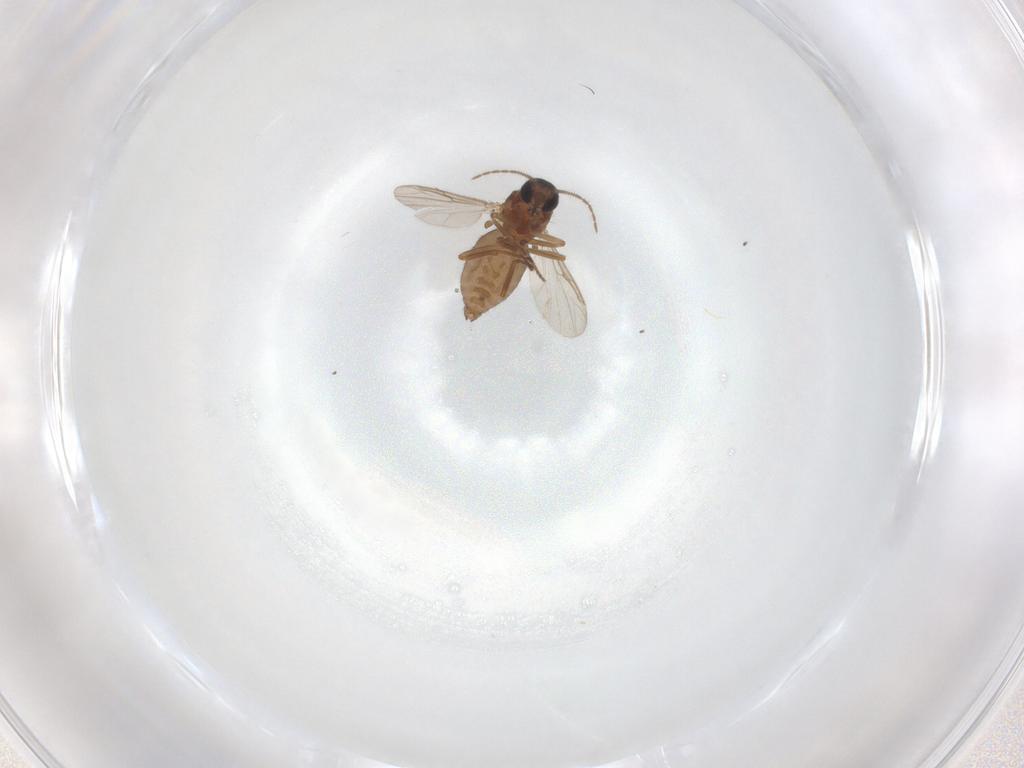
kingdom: Animalia
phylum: Arthropoda
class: Insecta
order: Diptera
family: Ceratopogonidae
